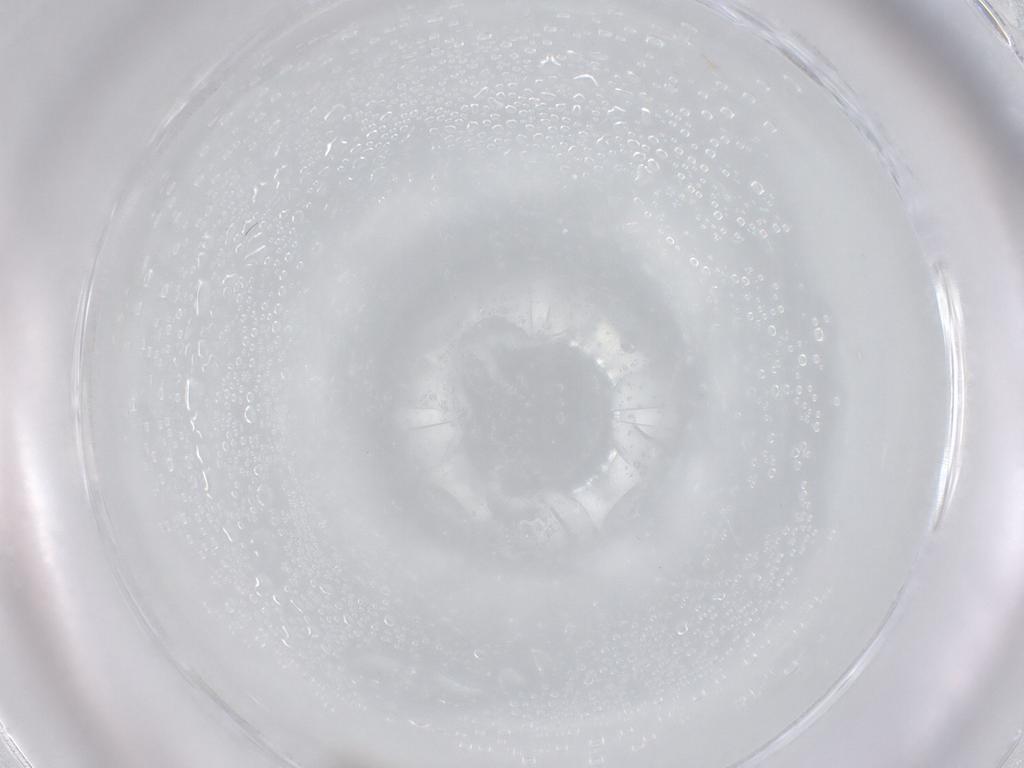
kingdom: Animalia
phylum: Arthropoda
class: Insecta
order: Diptera
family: Psychodidae
